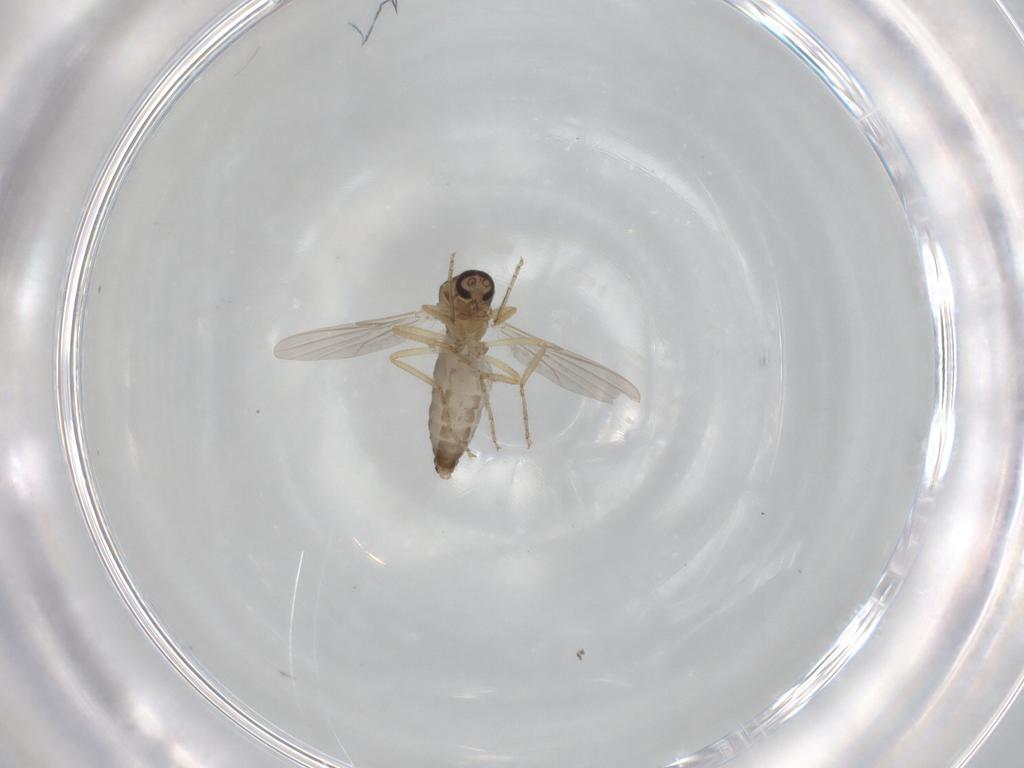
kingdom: Animalia
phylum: Arthropoda
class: Insecta
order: Diptera
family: Ceratopogonidae
